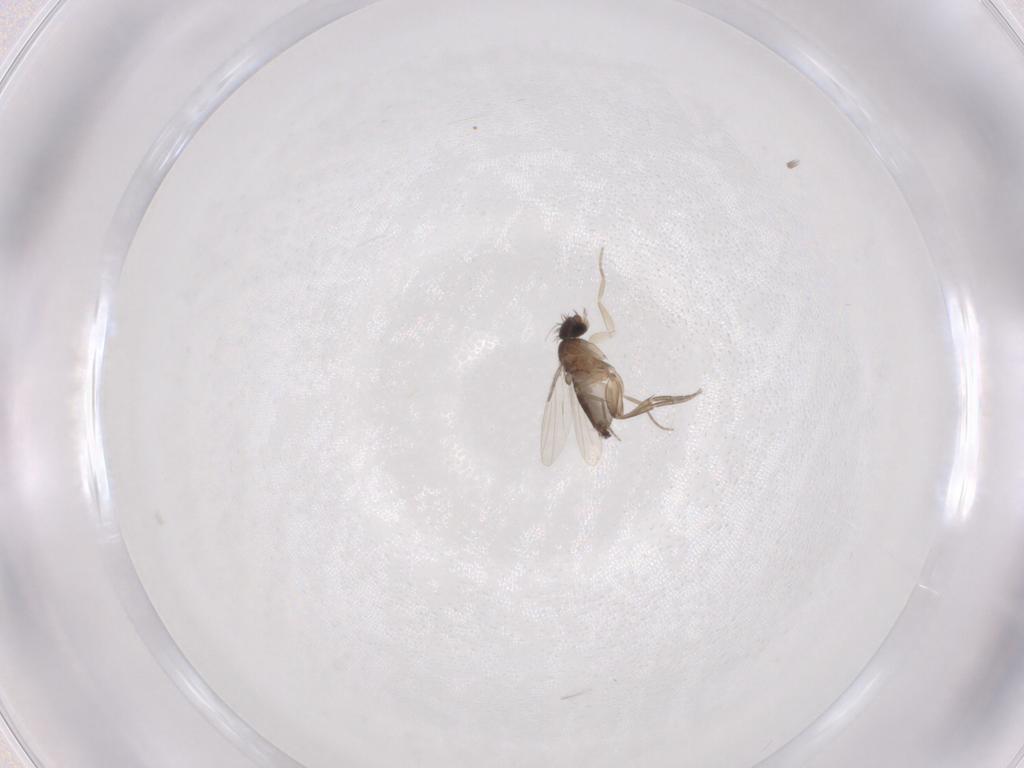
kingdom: Animalia
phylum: Arthropoda
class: Insecta
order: Diptera
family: Phoridae
